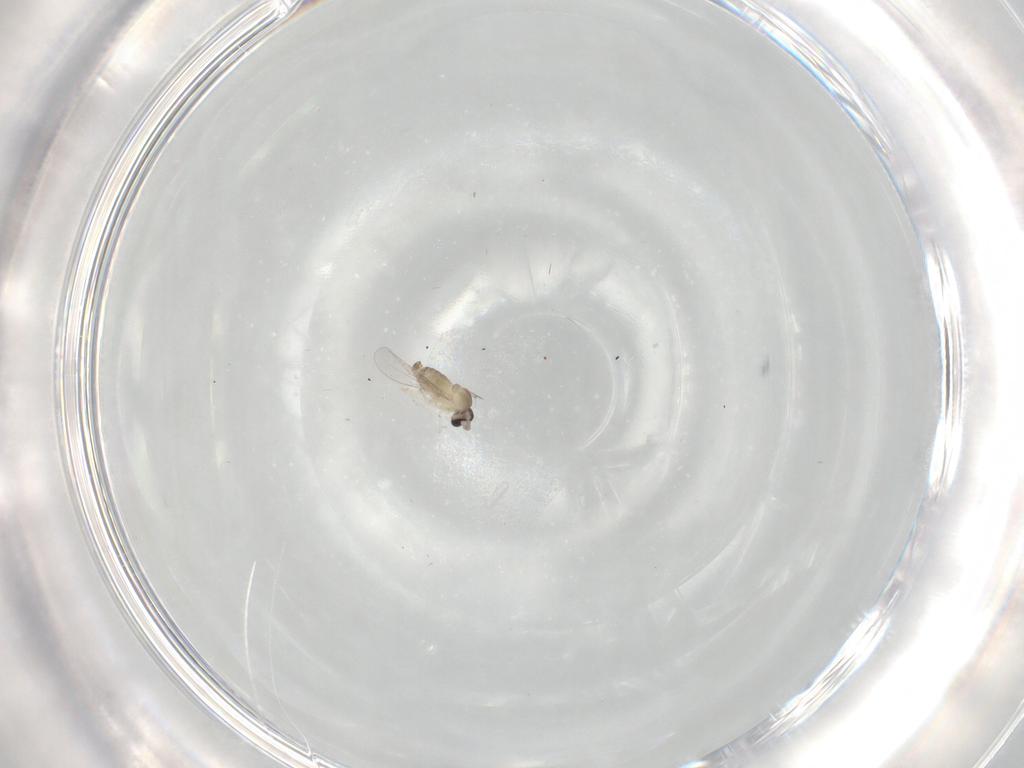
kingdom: Animalia
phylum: Arthropoda
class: Insecta
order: Diptera
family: Cecidomyiidae
